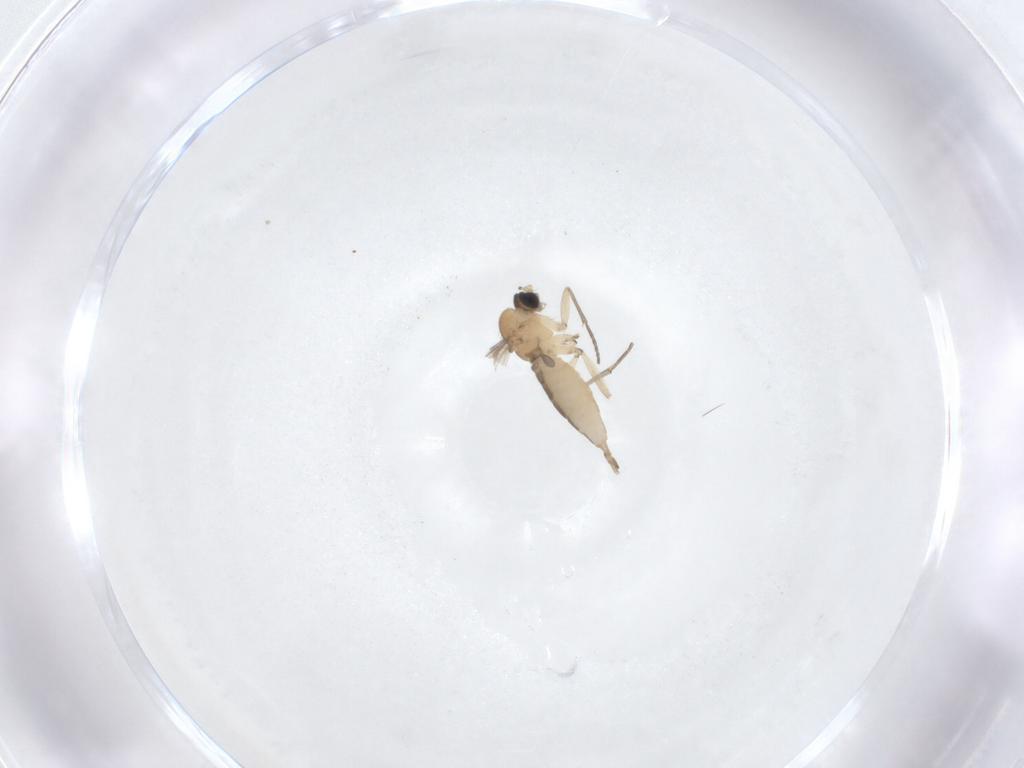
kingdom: Animalia
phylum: Arthropoda
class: Insecta
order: Diptera
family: Sciaridae
